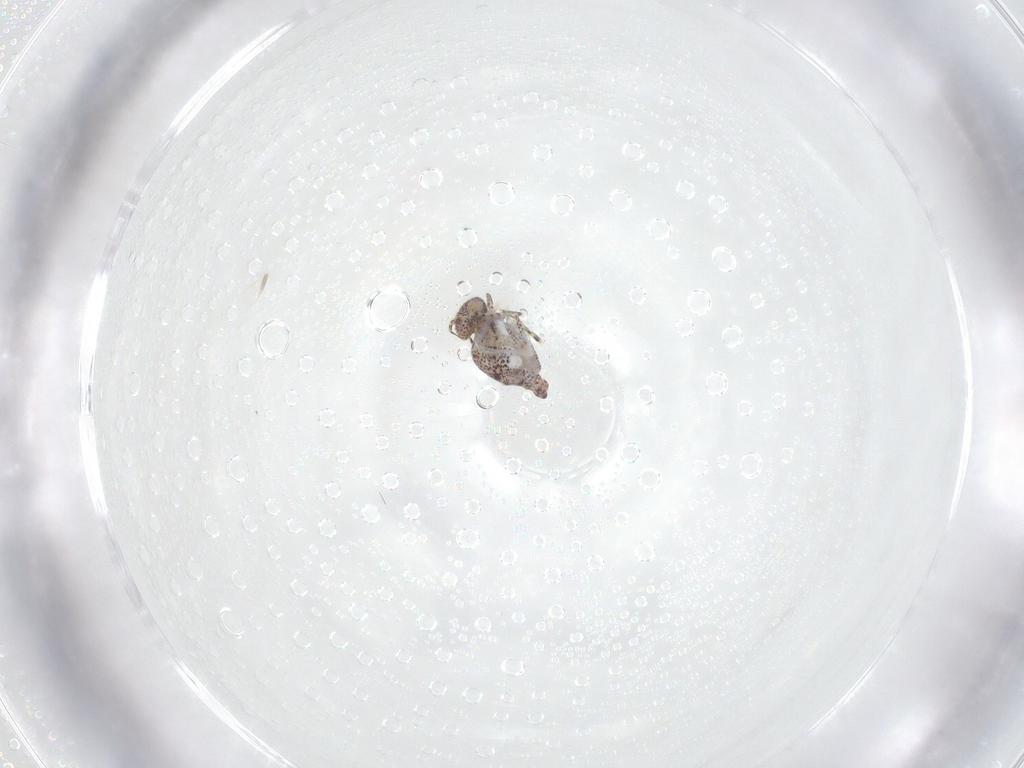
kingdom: Animalia
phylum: Arthropoda
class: Collembola
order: Symphypleona
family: Bourletiellidae
